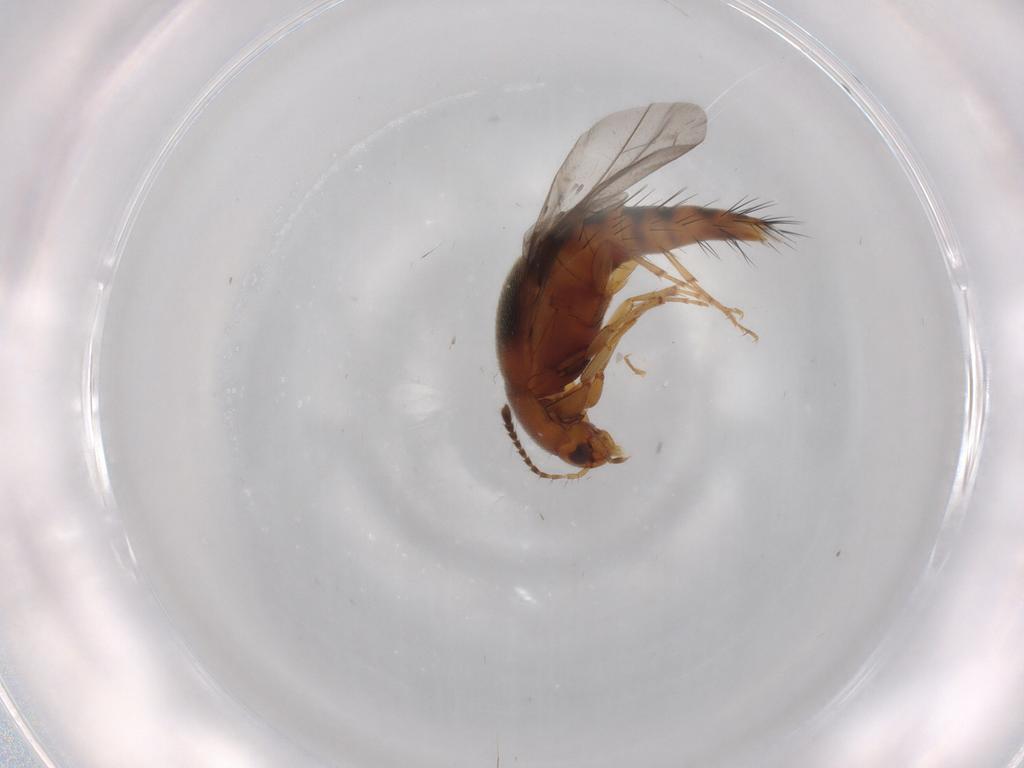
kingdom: Animalia
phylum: Arthropoda
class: Insecta
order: Coleoptera
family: Staphylinidae
